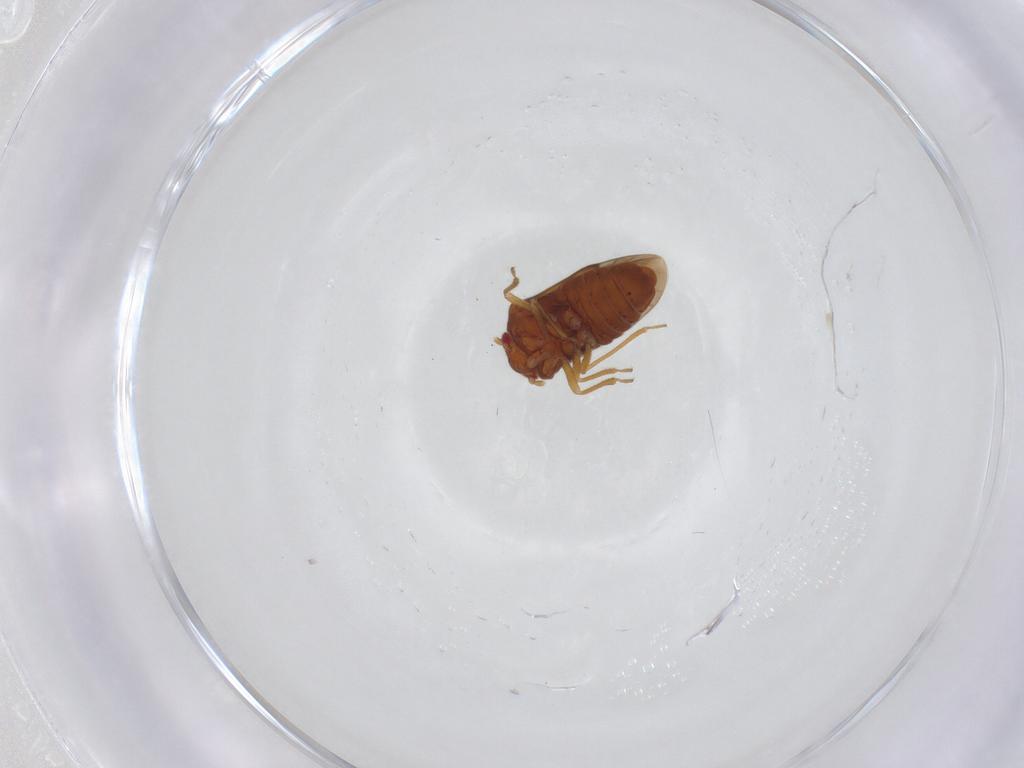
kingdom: Animalia
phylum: Arthropoda
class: Insecta
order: Hemiptera
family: Schizopteridae
